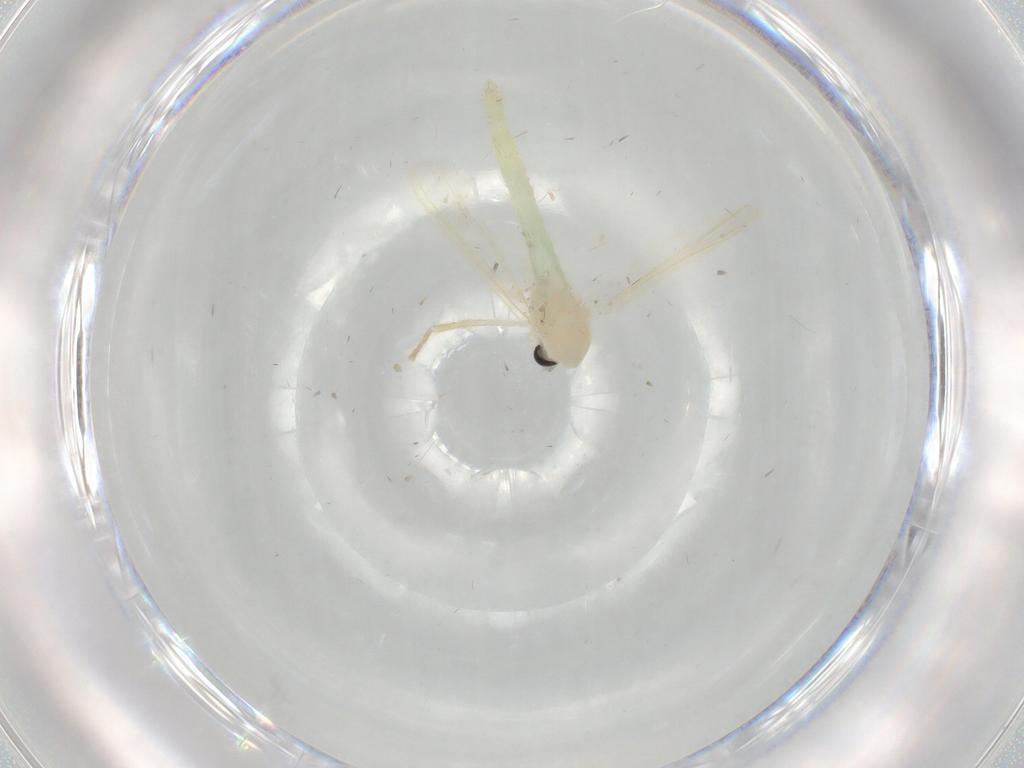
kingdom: Animalia
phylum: Arthropoda
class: Insecta
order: Diptera
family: Chironomidae
